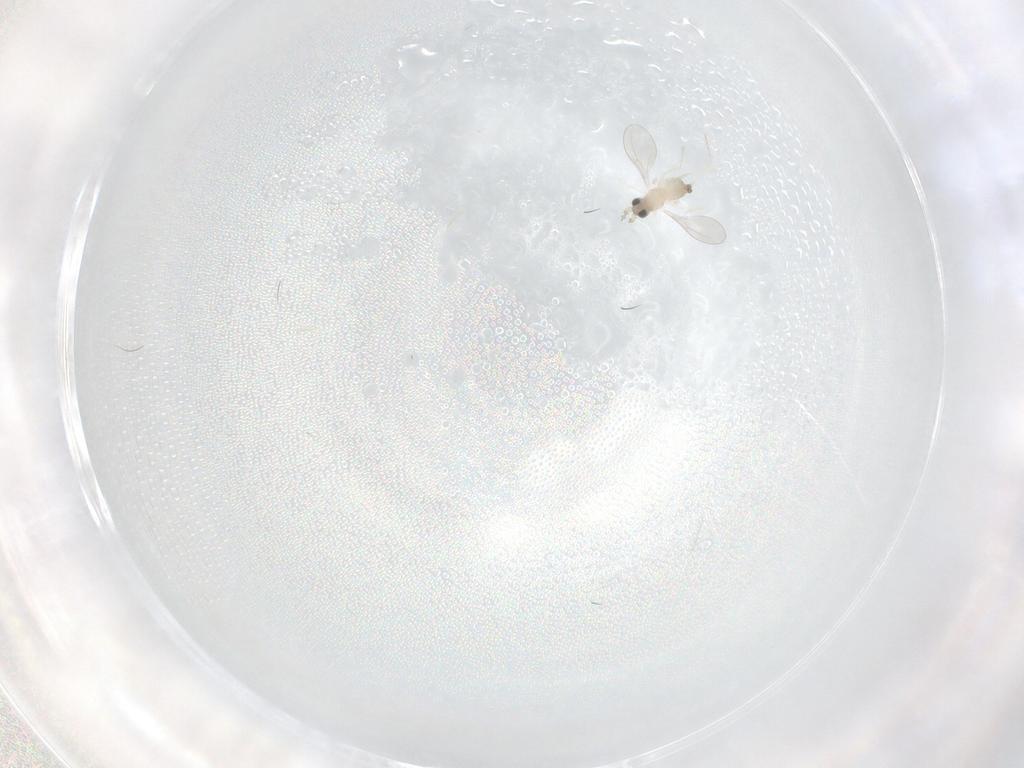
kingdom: Animalia
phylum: Arthropoda
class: Insecta
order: Diptera
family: Cecidomyiidae
